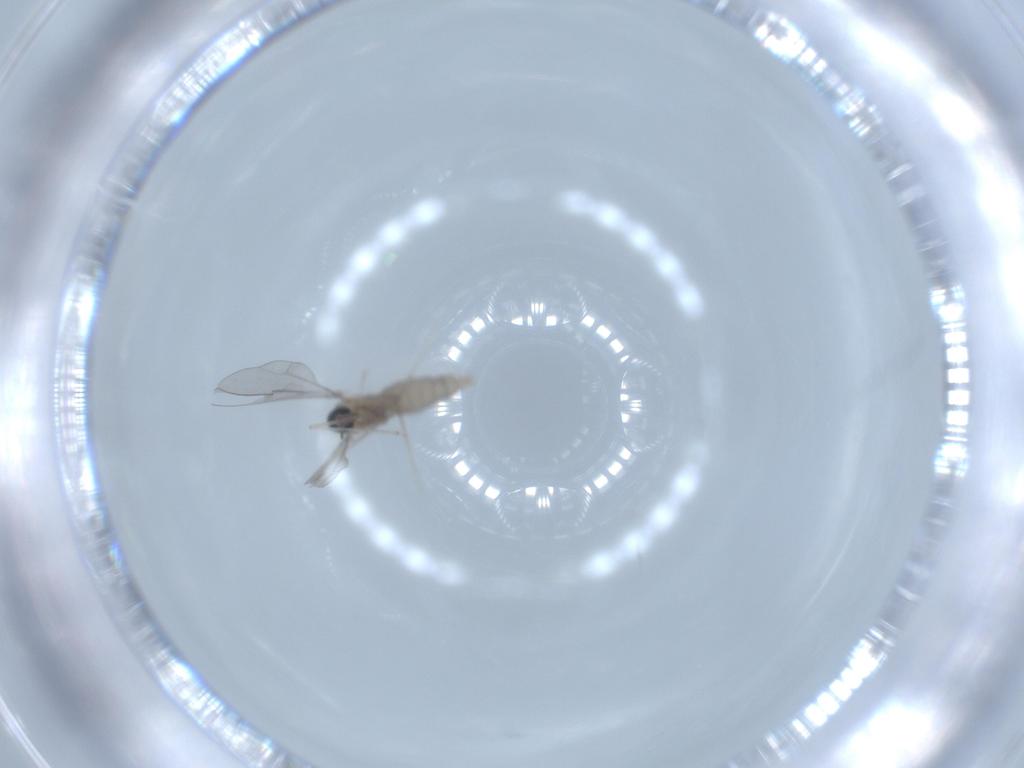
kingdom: Animalia
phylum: Arthropoda
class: Insecta
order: Diptera
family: Cecidomyiidae
